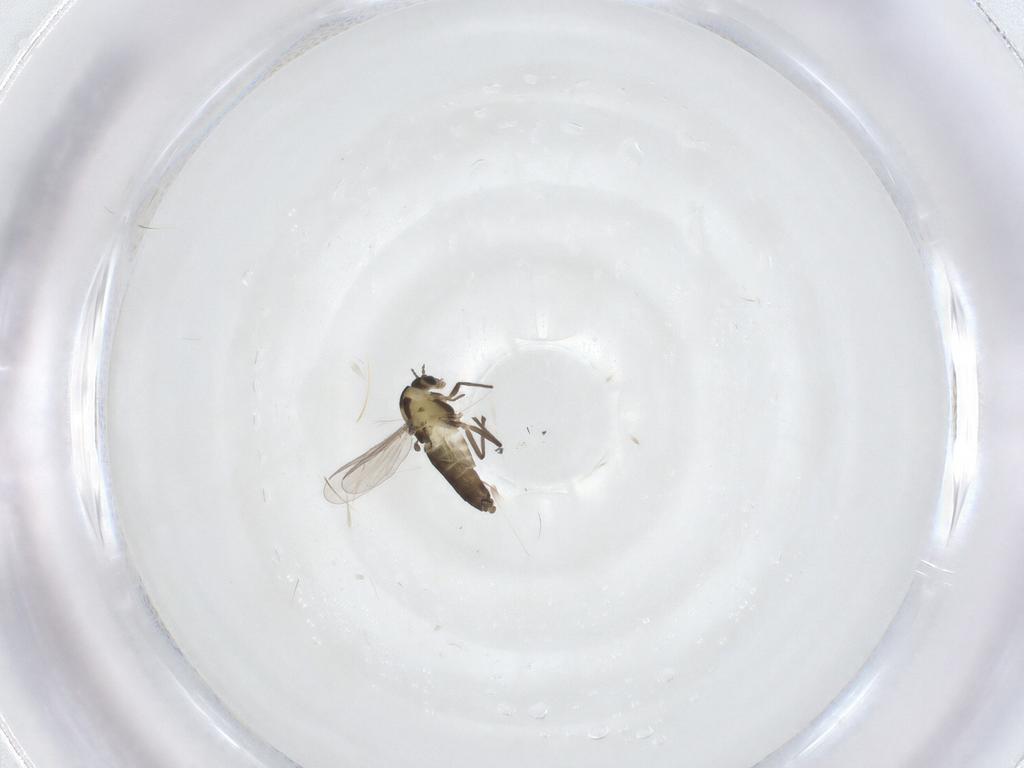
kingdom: Animalia
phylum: Arthropoda
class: Insecta
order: Diptera
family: Chironomidae
